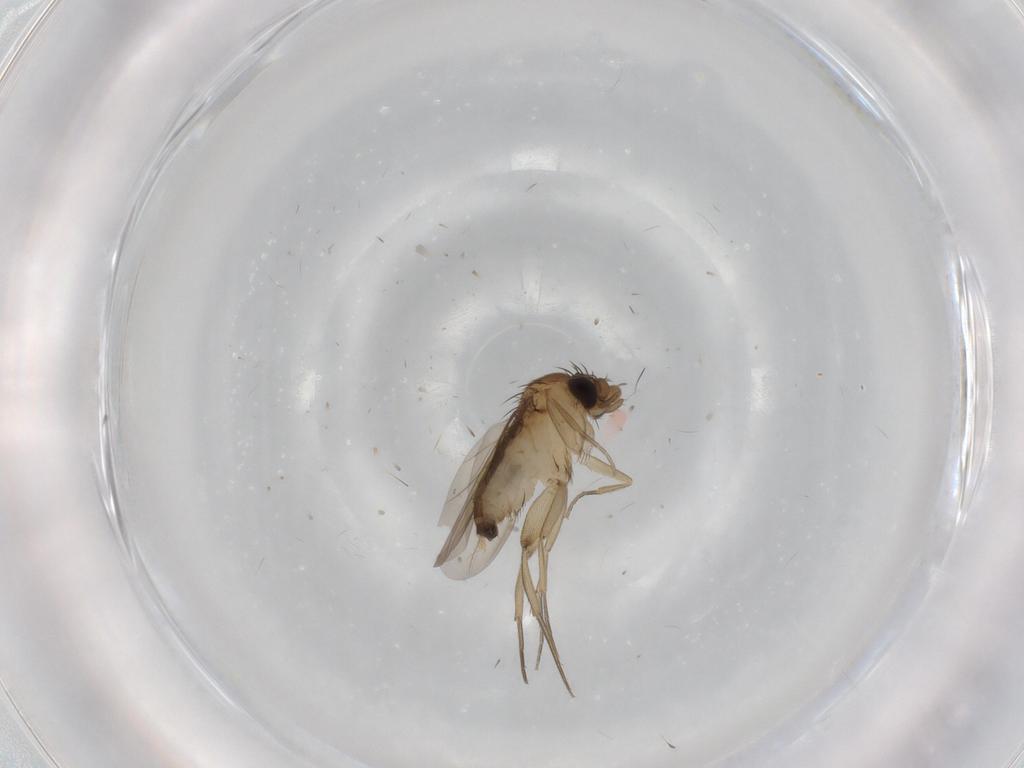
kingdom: Animalia
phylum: Arthropoda
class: Insecta
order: Diptera
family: Phoridae
